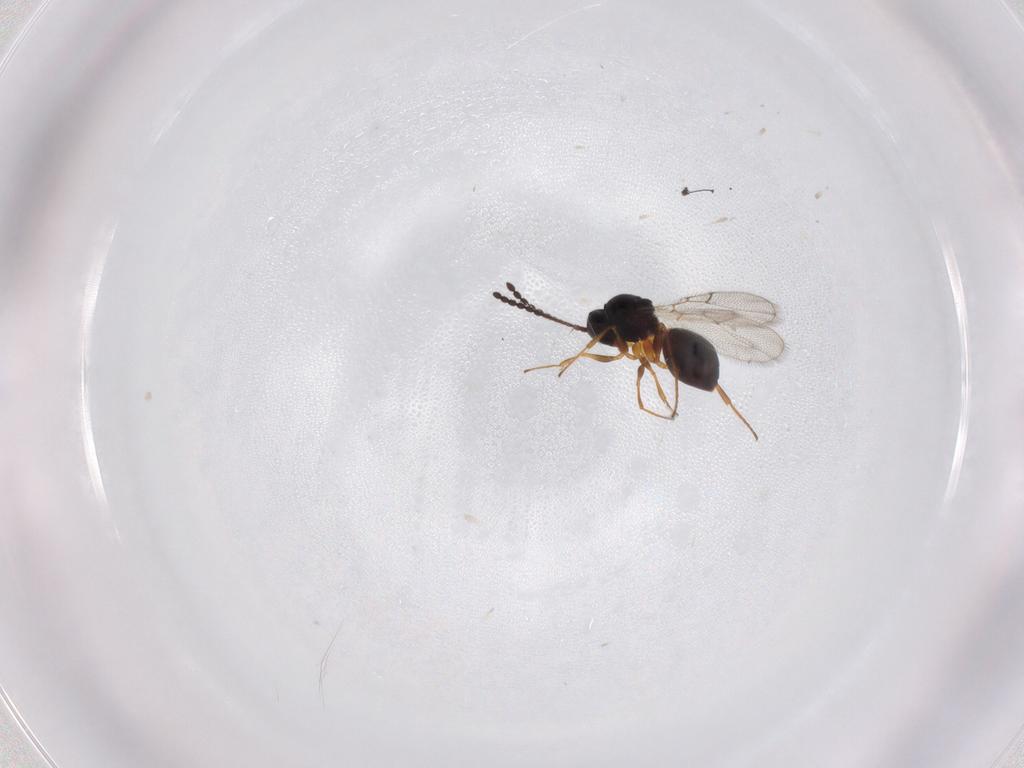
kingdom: Animalia
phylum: Arthropoda
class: Insecta
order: Hymenoptera
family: Figitidae
